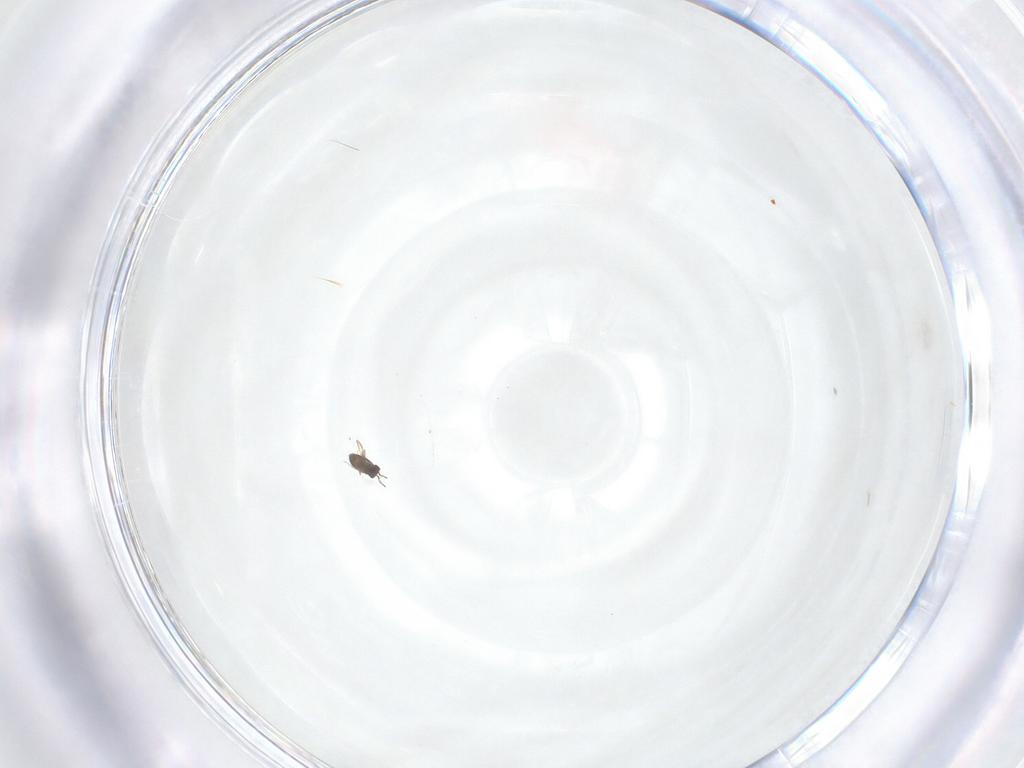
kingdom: Animalia
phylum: Arthropoda
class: Insecta
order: Hymenoptera
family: Mymaridae
